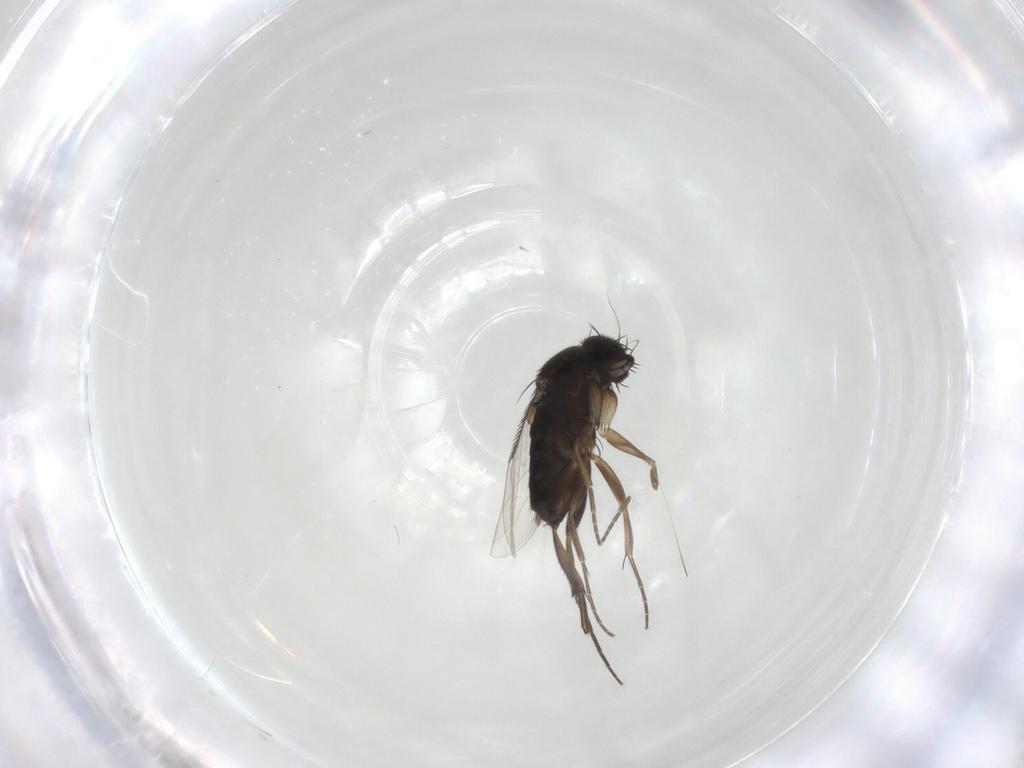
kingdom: Animalia
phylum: Arthropoda
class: Insecta
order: Diptera
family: Phoridae
